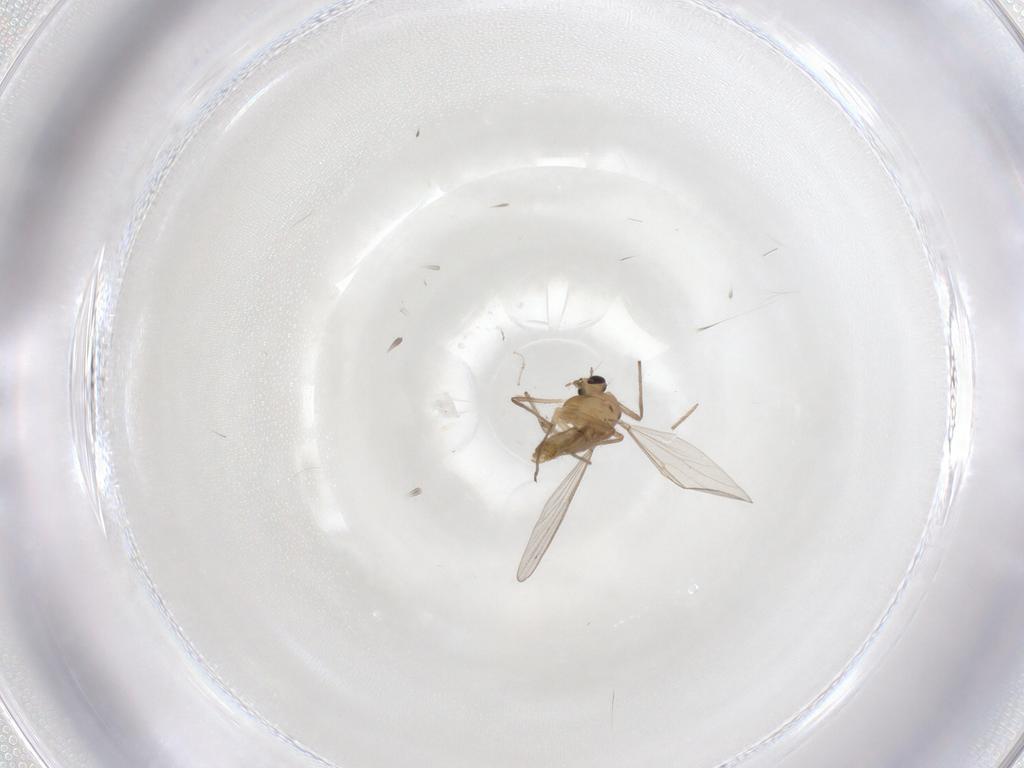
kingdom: Animalia
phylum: Arthropoda
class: Insecta
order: Diptera
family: Chironomidae
